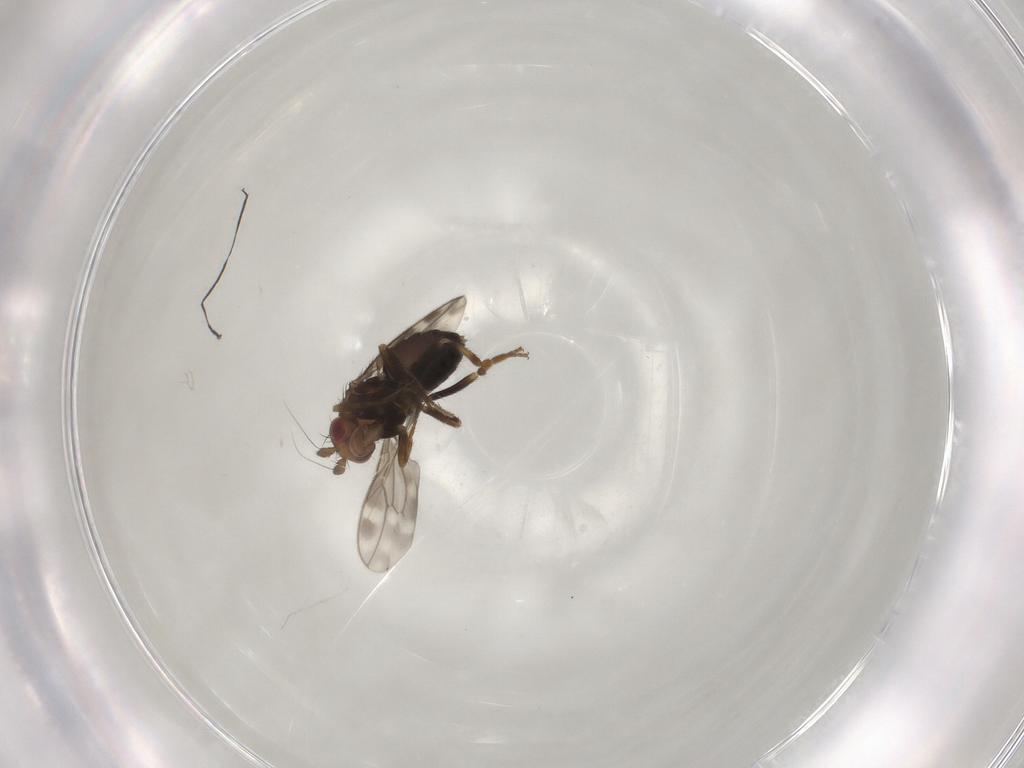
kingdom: Animalia
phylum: Arthropoda
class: Insecta
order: Diptera
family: Sphaeroceridae
